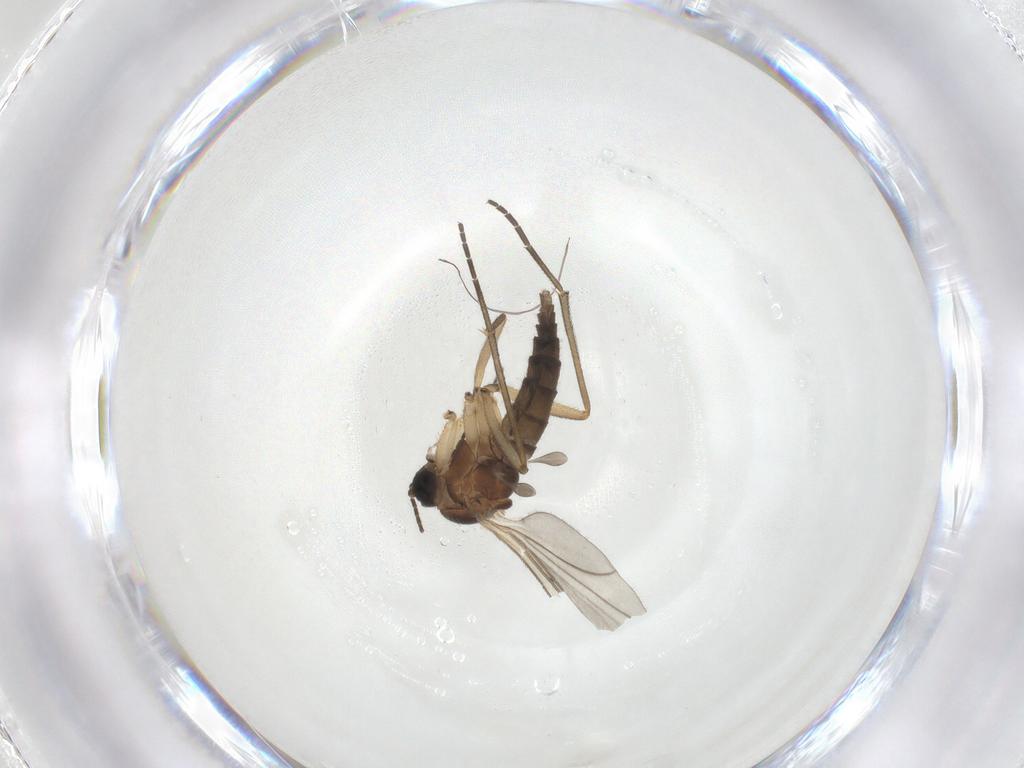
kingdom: Animalia
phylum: Arthropoda
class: Insecta
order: Diptera
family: Sciaridae
